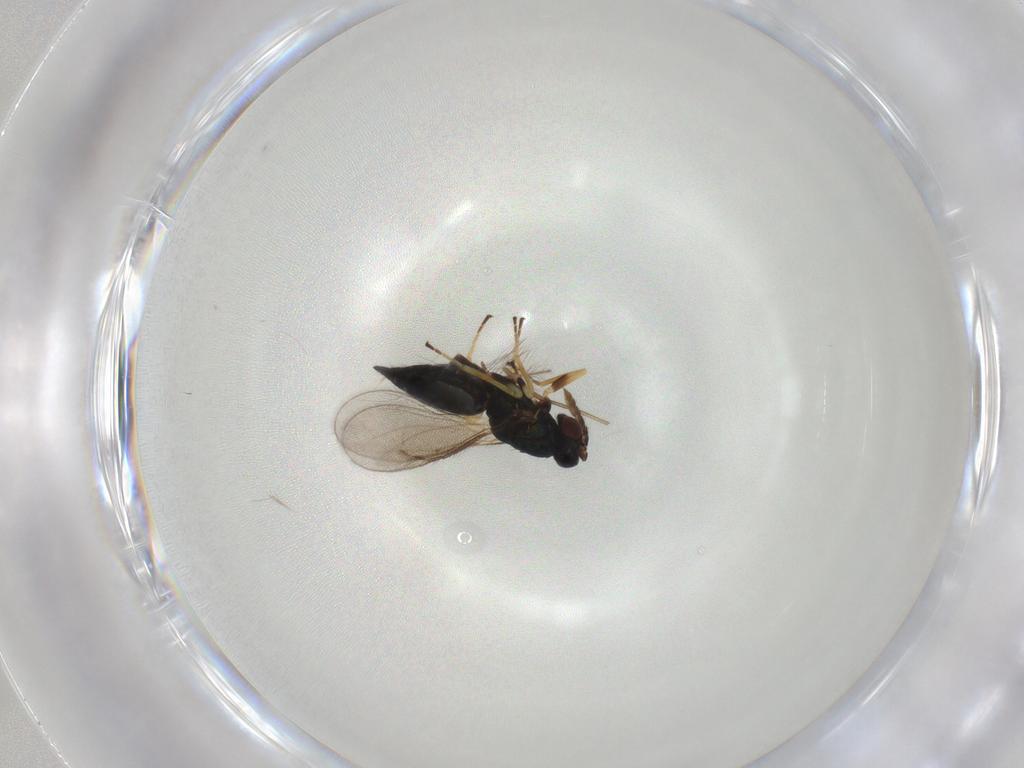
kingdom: Animalia
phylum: Arthropoda
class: Insecta
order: Hymenoptera
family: Eulophidae
